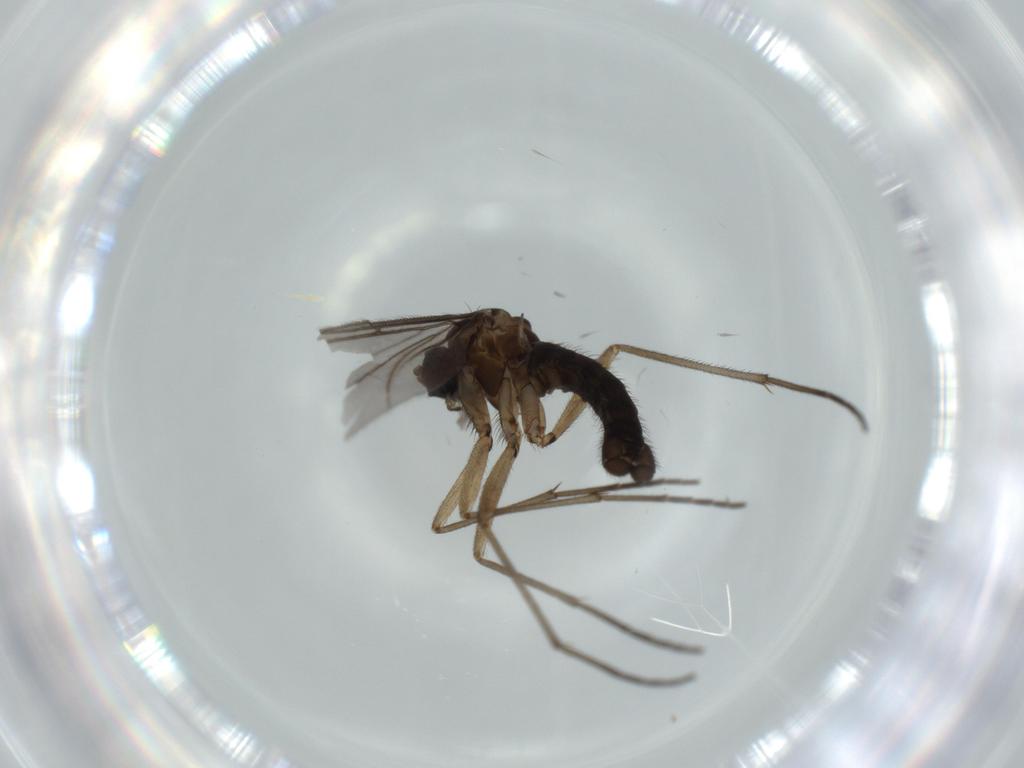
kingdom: Animalia
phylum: Arthropoda
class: Insecta
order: Diptera
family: Sciaridae
